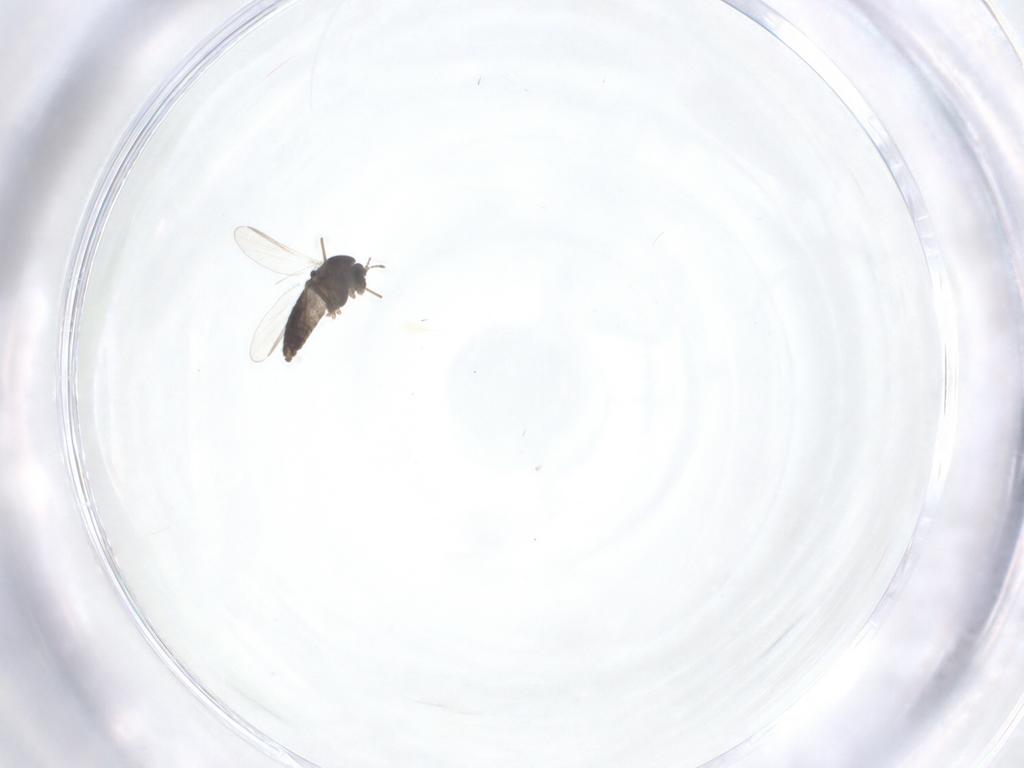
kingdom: Animalia
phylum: Arthropoda
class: Insecta
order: Diptera
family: Chironomidae
